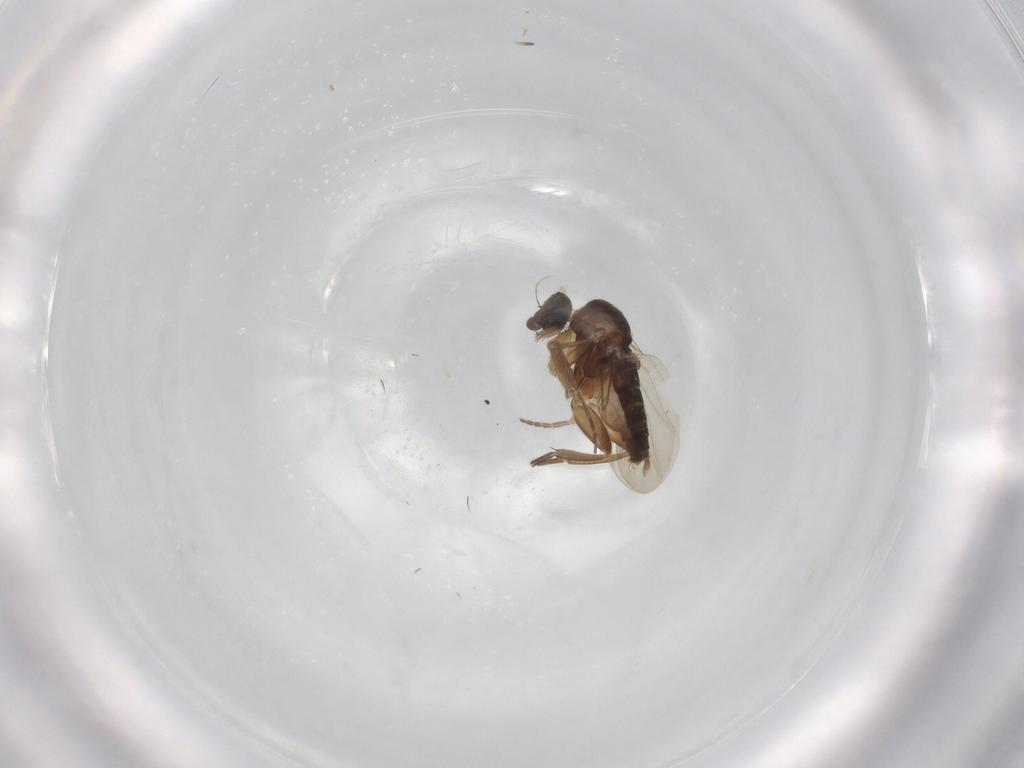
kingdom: Animalia
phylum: Arthropoda
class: Insecta
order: Diptera
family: Phoridae
